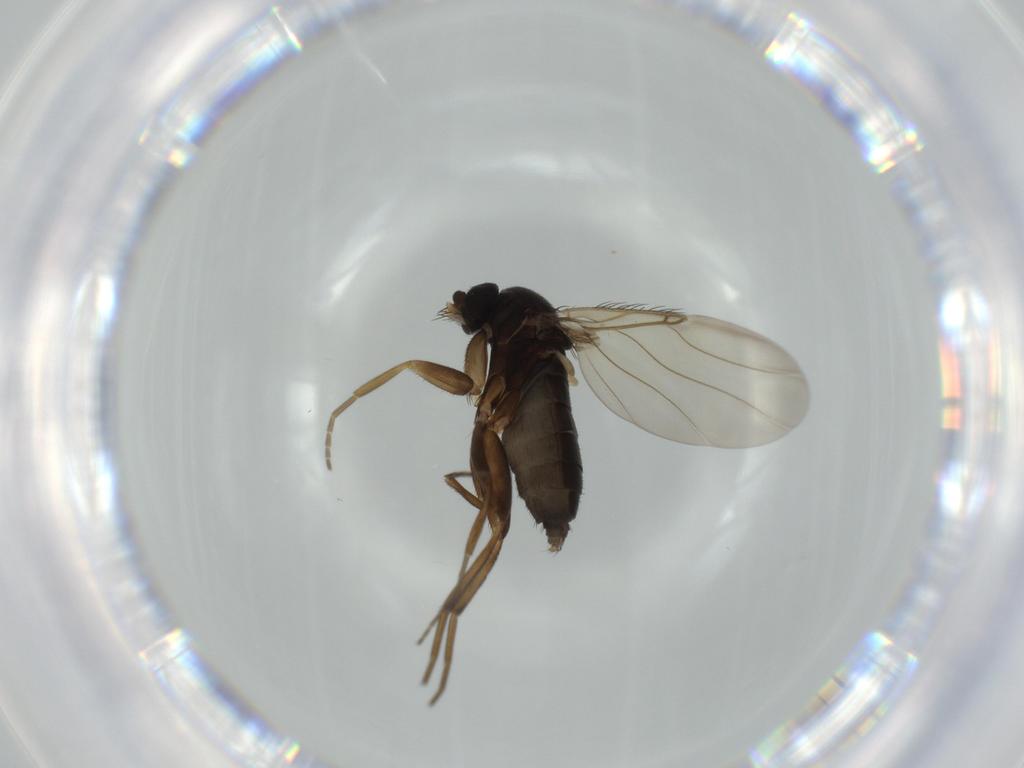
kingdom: Animalia
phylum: Arthropoda
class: Insecta
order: Diptera
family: Phoridae
